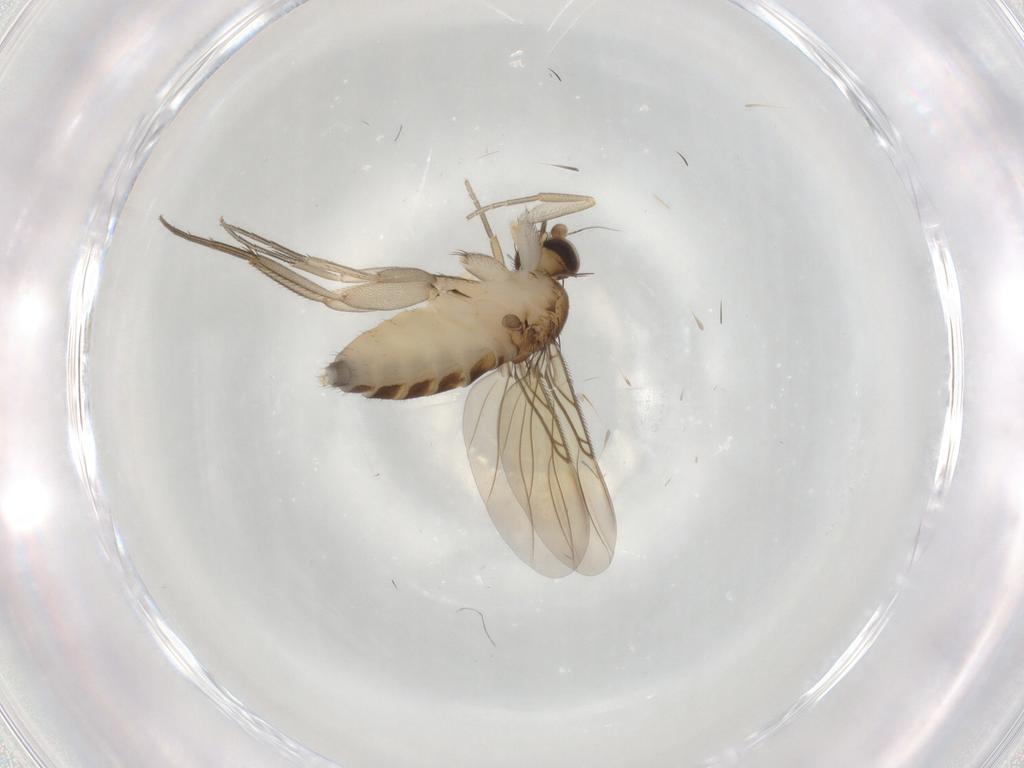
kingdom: Animalia
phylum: Arthropoda
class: Insecta
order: Diptera
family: Phoridae
